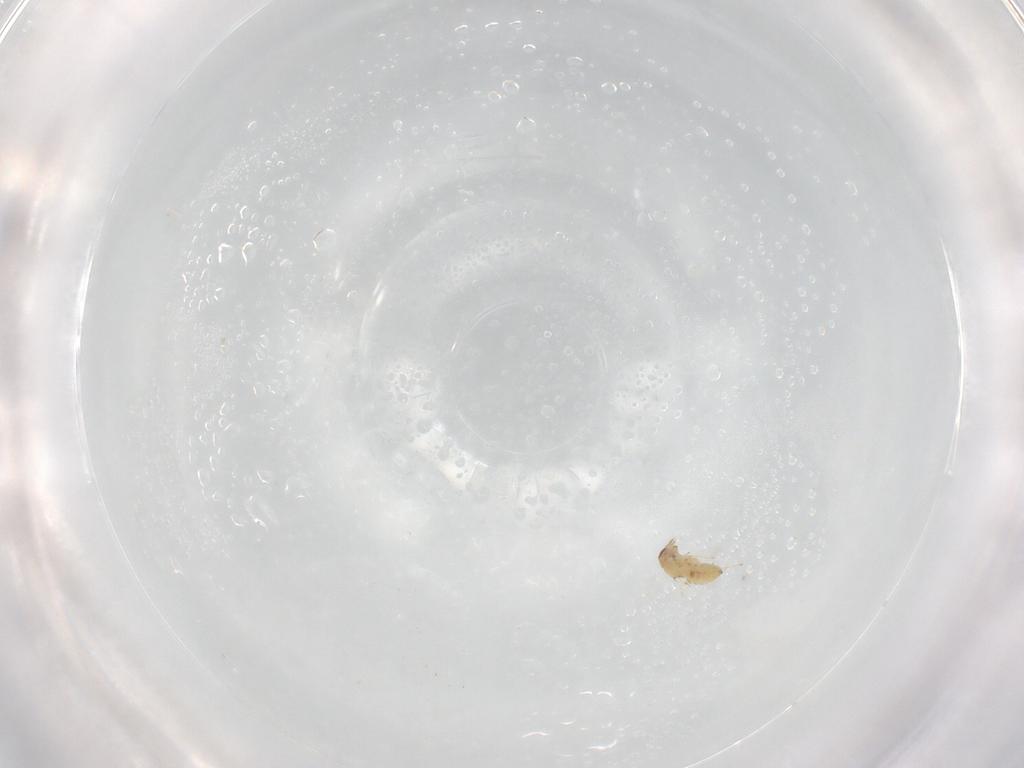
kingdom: Animalia
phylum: Arthropoda
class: Insecta
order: Hymenoptera
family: Trichogrammatidae
